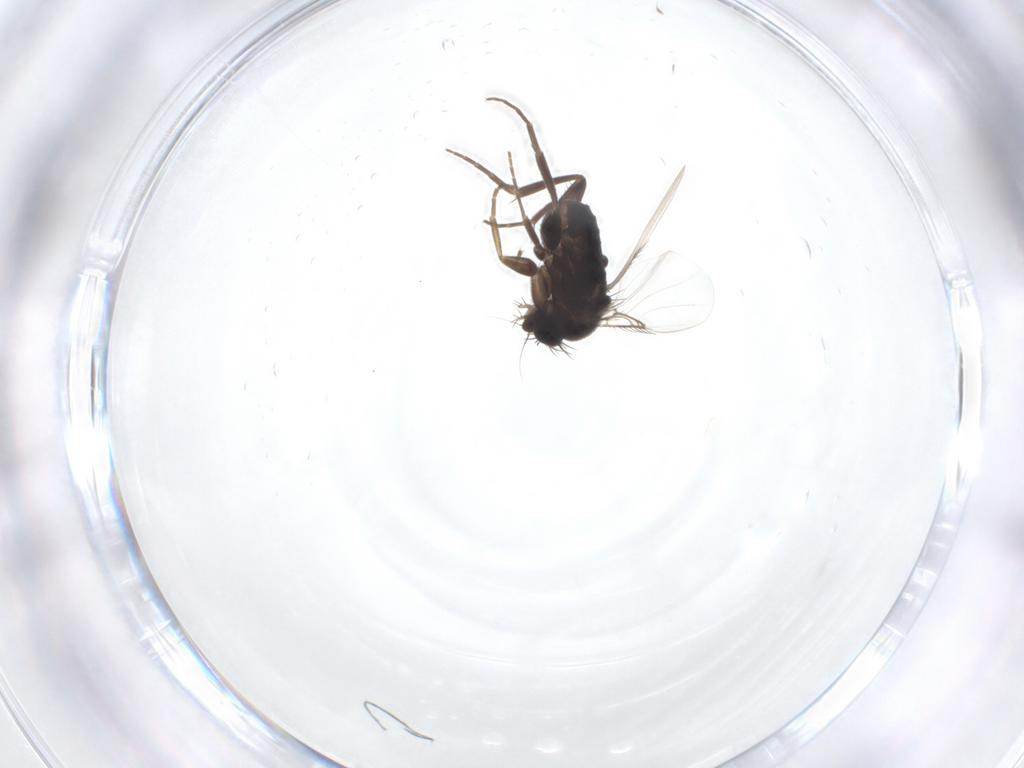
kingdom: Animalia
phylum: Arthropoda
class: Insecta
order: Diptera
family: Phoridae
